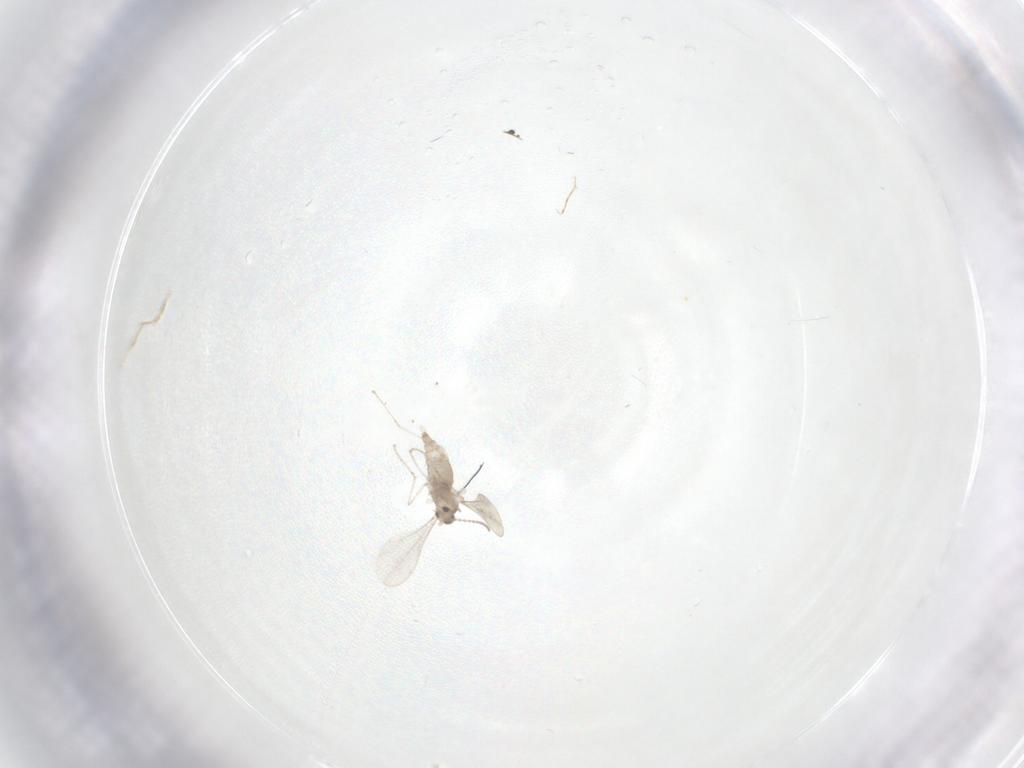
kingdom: Animalia
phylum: Arthropoda
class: Insecta
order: Diptera
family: Cecidomyiidae
